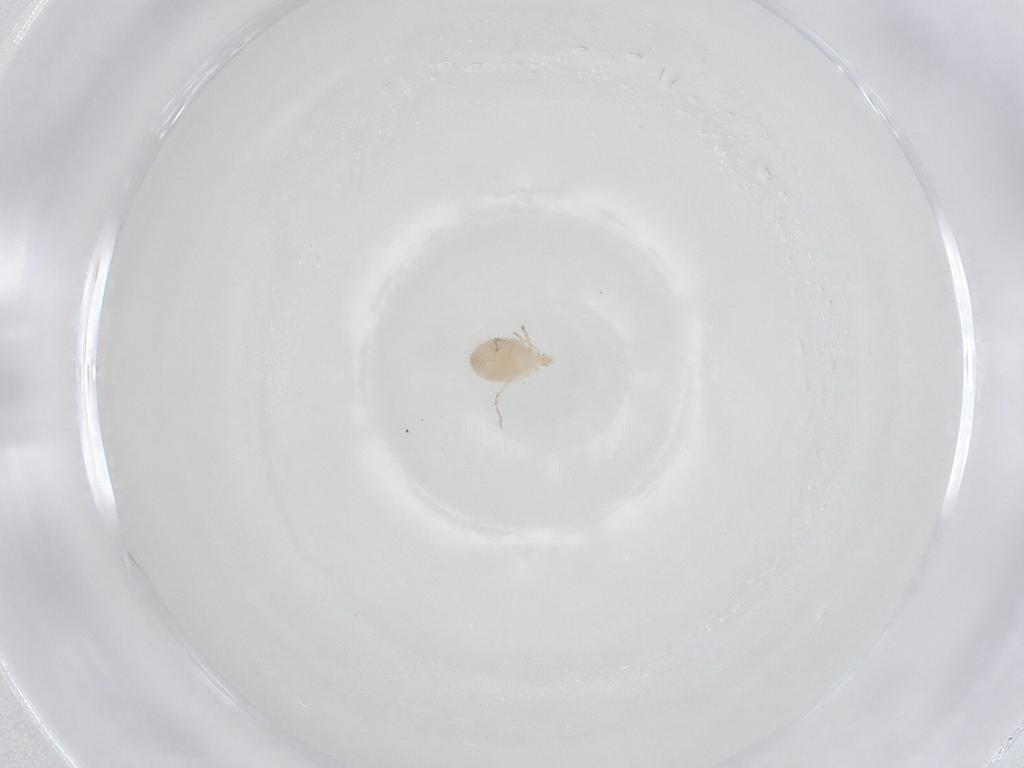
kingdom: Animalia
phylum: Arthropoda
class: Arachnida
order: Trombidiformes
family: Erythraeidae
